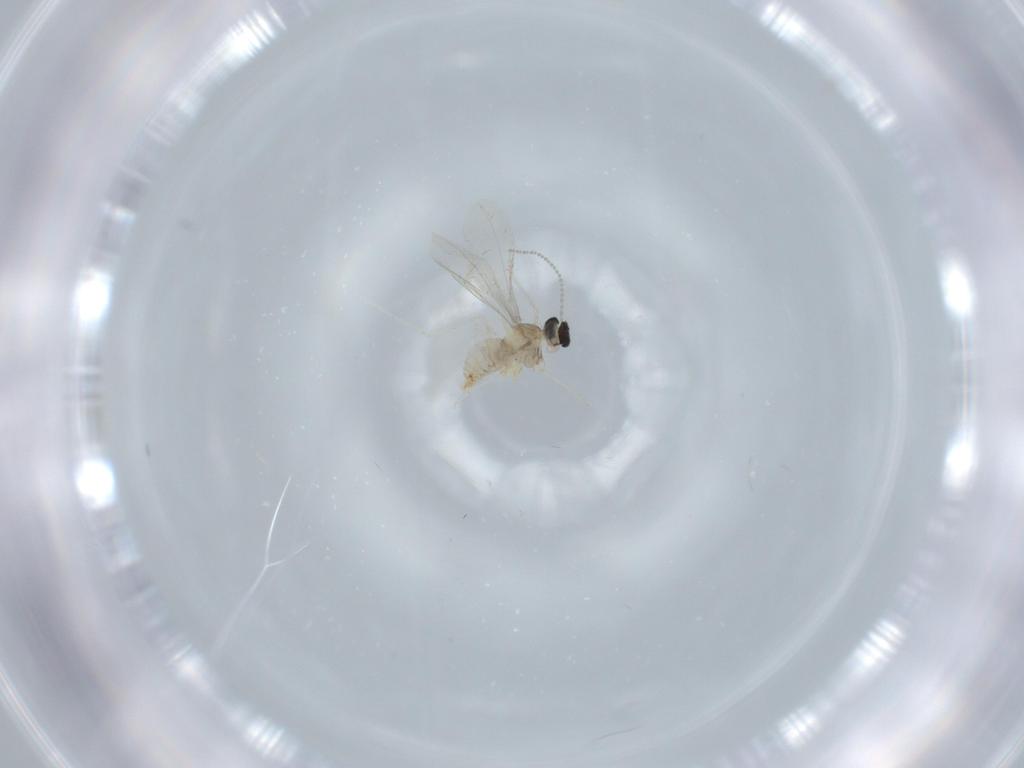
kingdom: Animalia
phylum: Arthropoda
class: Insecta
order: Diptera
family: Cecidomyiidae
